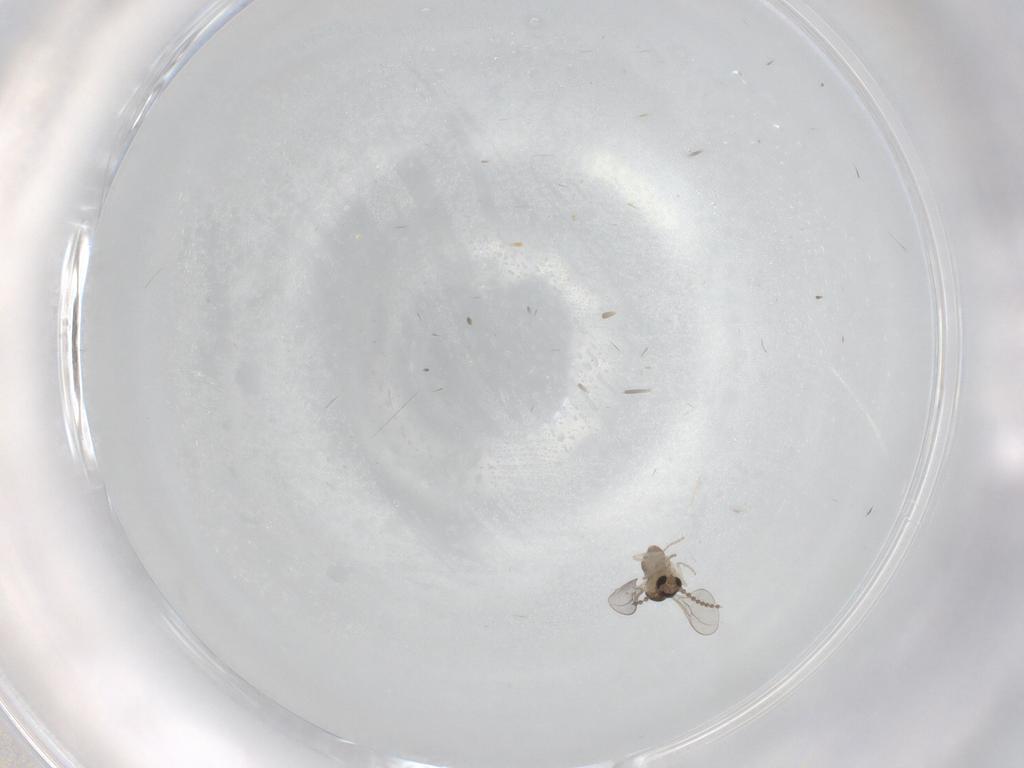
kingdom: Animalia
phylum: Arthropoda
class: Insecta
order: Diptera
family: Cecidomyiidae
